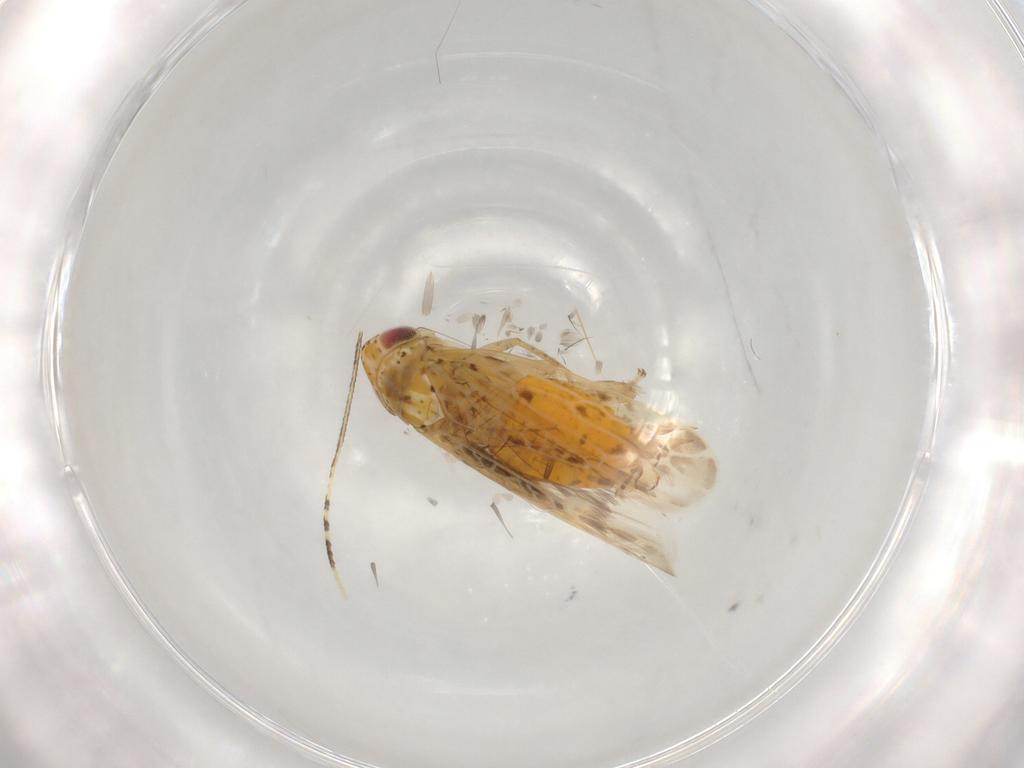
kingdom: Animalia
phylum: Arthropoda
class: Insecta
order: Hemiptera
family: Cicadellidae
